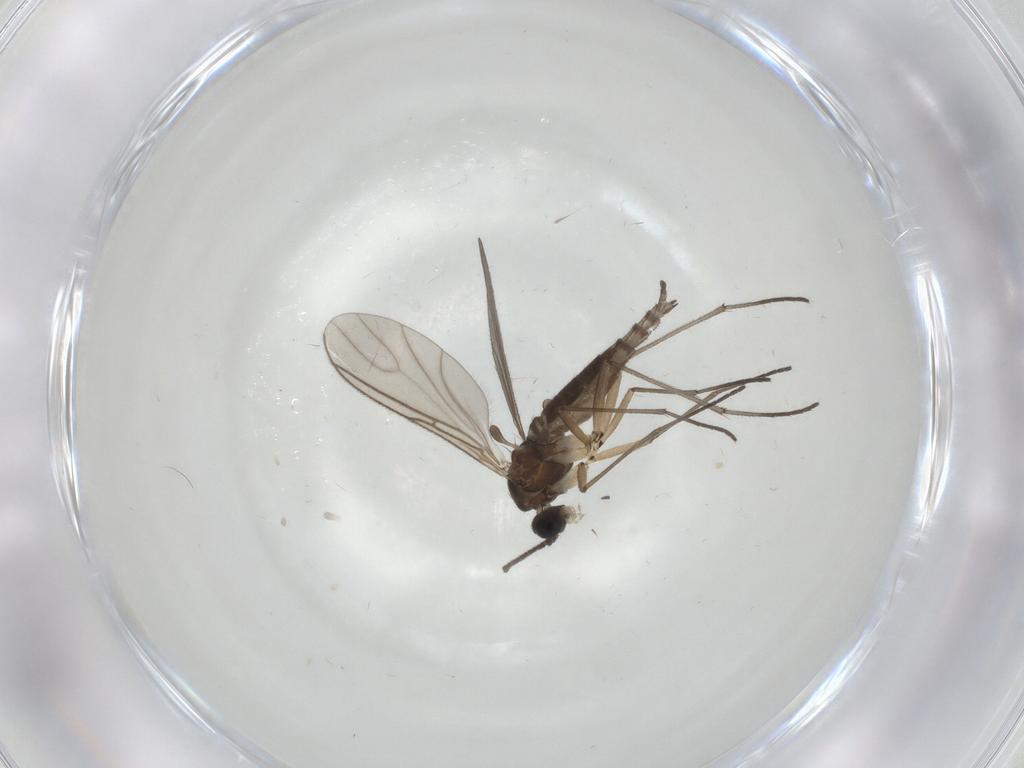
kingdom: Animalia
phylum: Arthropoda
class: Insecta
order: Diptera
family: Sciaridae
